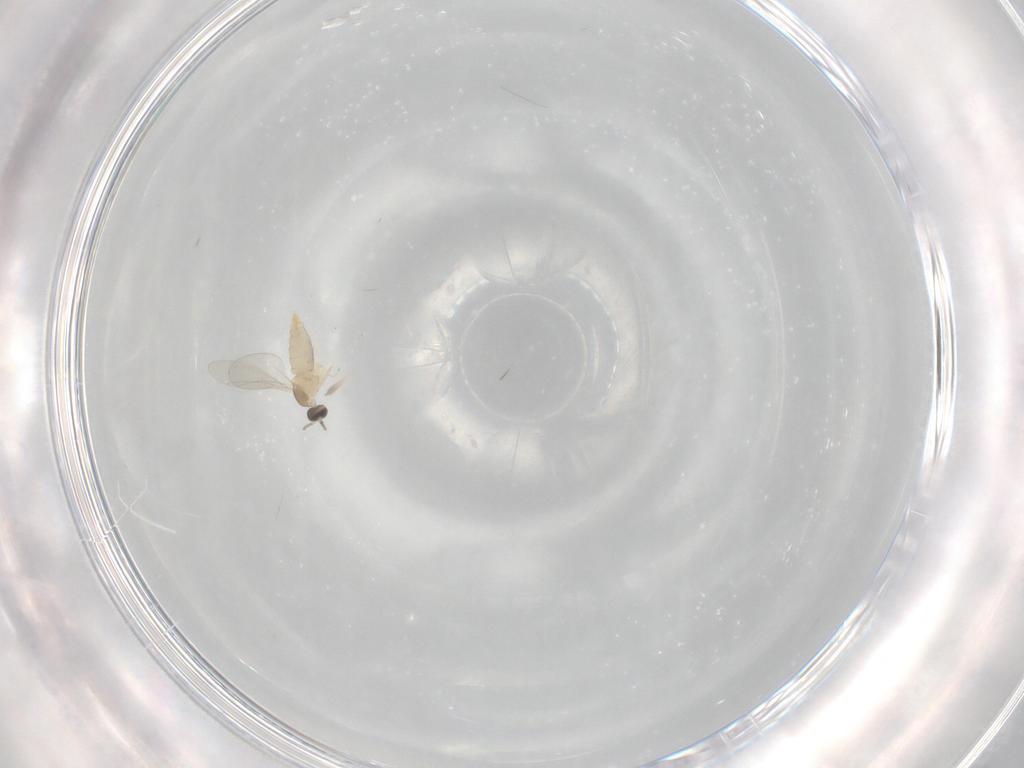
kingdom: Animalia
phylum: Arthropoda
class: Insecta
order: Diptera
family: Cecidomyiidae
